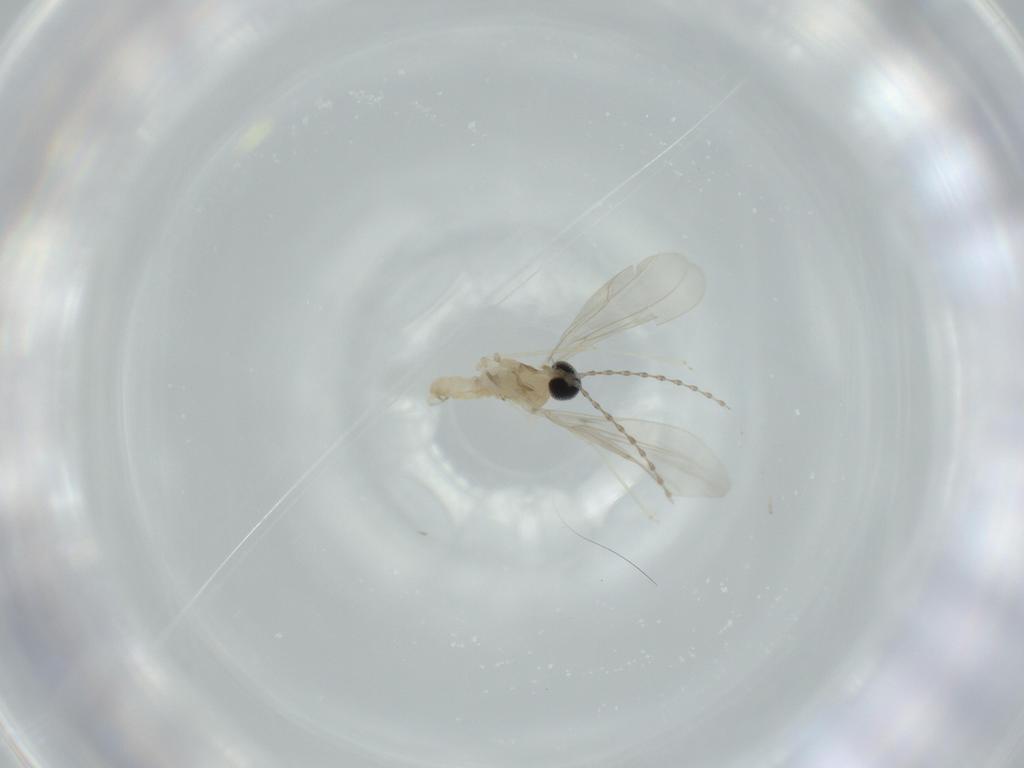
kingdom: Animalia
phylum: Arthropoda
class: Insecta
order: Diptera
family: Cecidomyiidae
